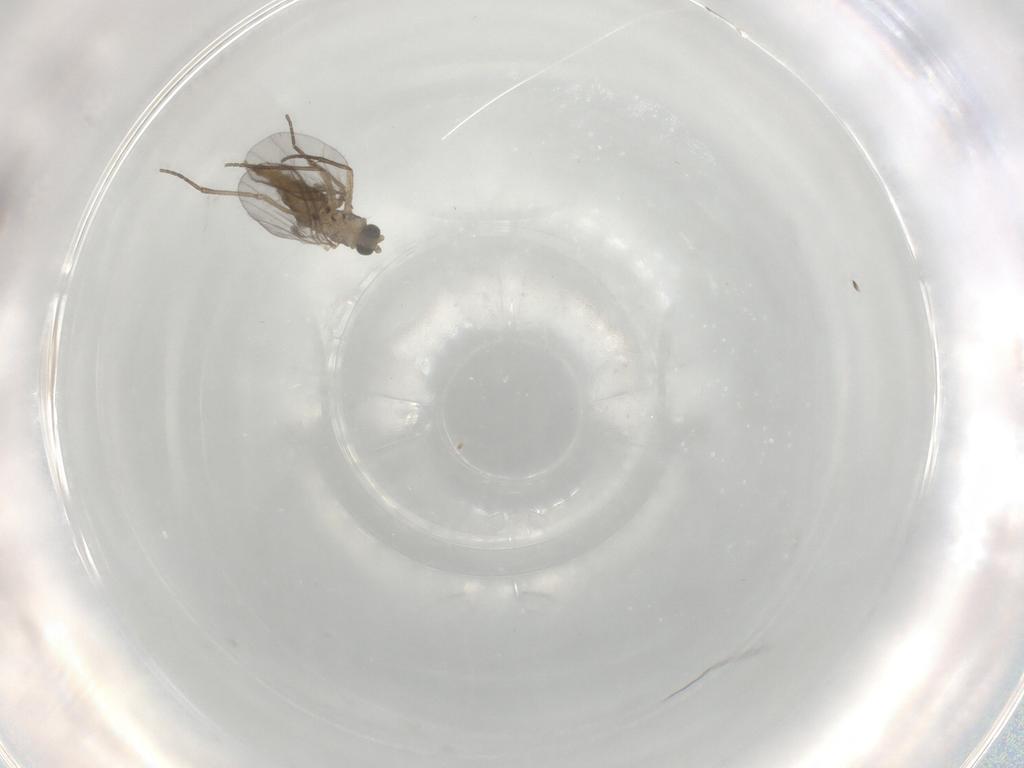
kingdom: Animalia
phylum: Arthropoda
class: Insecta
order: Diptera
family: Sciaridae
